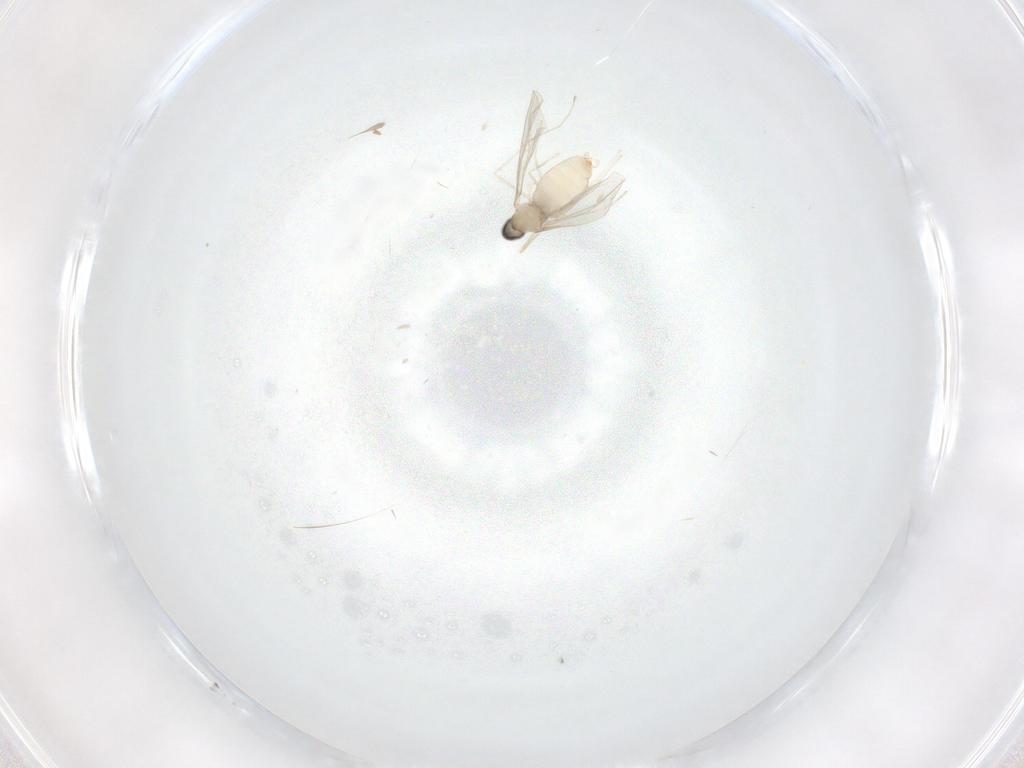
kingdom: Animalia
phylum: Arthropoda
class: Insecta
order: Diptera
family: Cecidomyiidae
